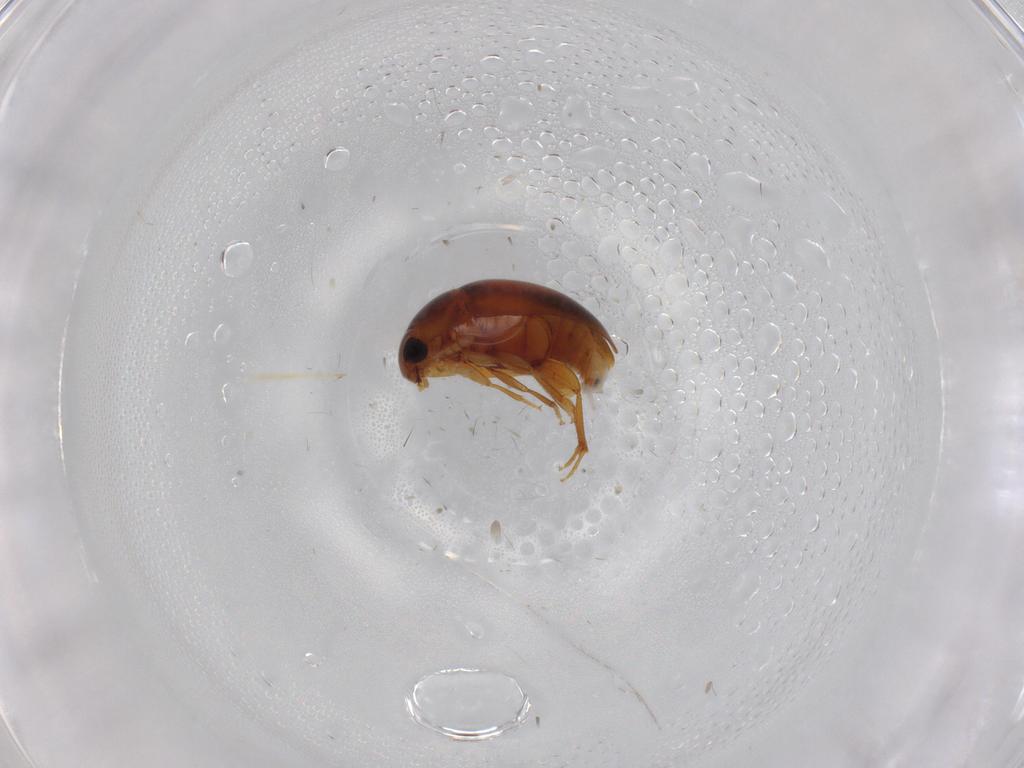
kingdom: Animalia
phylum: Arthropoda
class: Insecta
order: Coleoptera
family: Phalacridae
